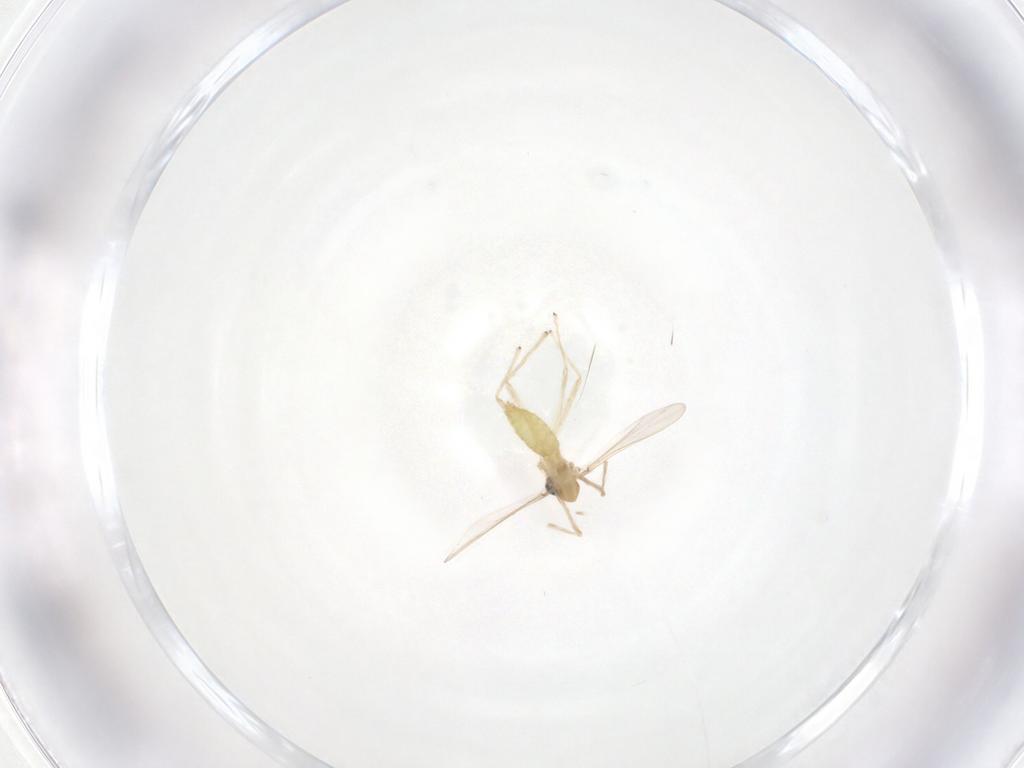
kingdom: Animalia
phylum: Arthropoda
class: Insecta
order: Diptera
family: Chironomidae
